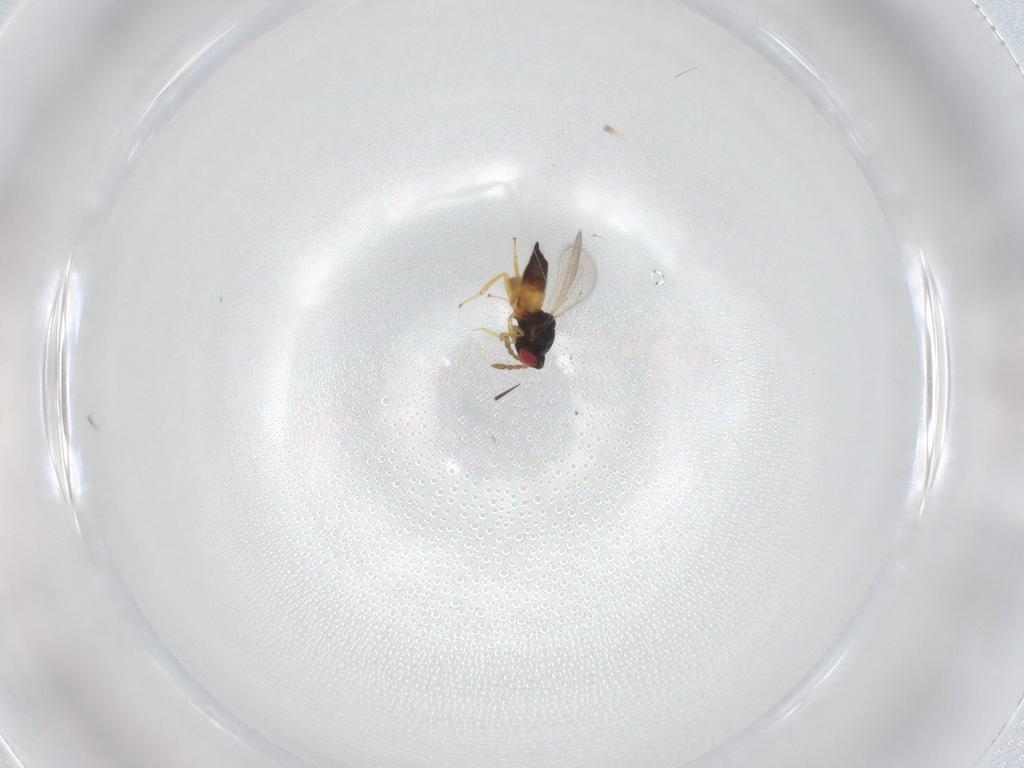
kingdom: Animalia
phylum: Arthropoda
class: Insecta
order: Hymenoptera
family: Eulophidae
